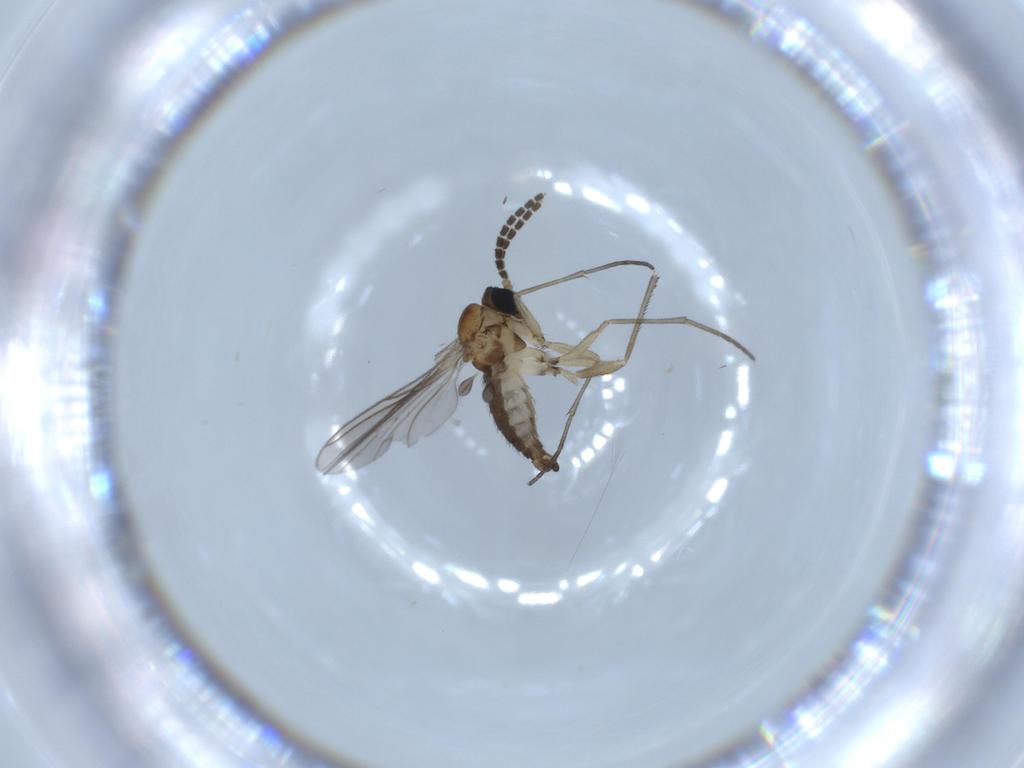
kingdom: Animalia
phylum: Arthropoda
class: Insecta
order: Diptera
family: Sciaridae
